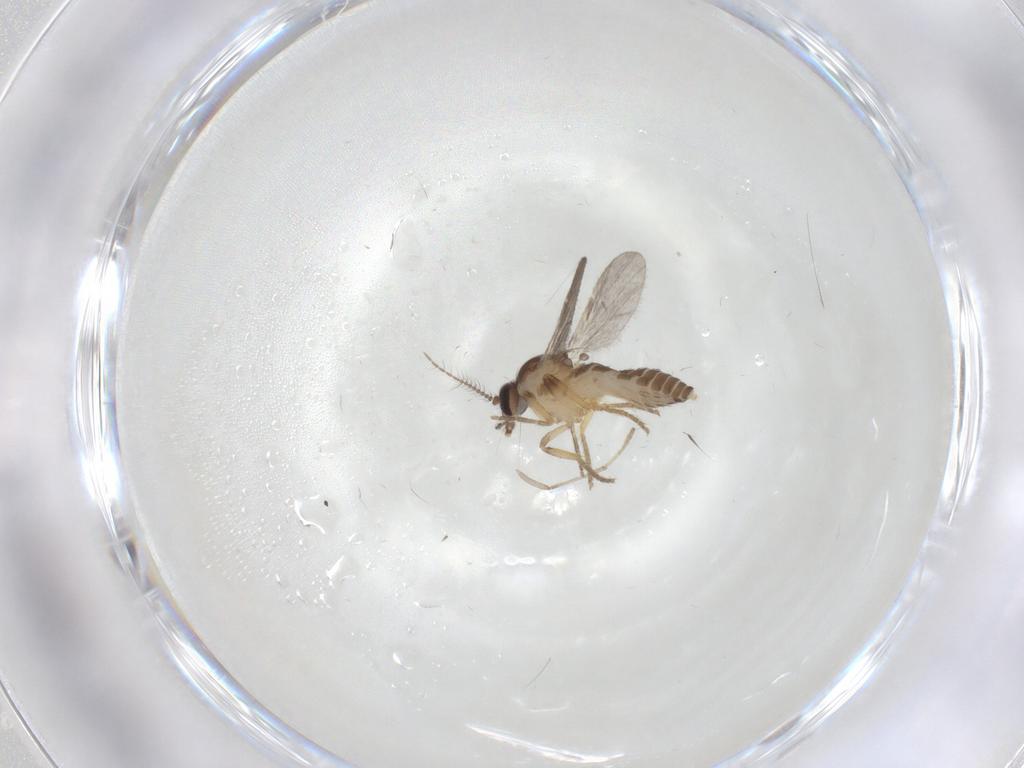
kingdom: Animalia
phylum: Arthropoda
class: Insecta
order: Diptera
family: Ceratopogonidae
